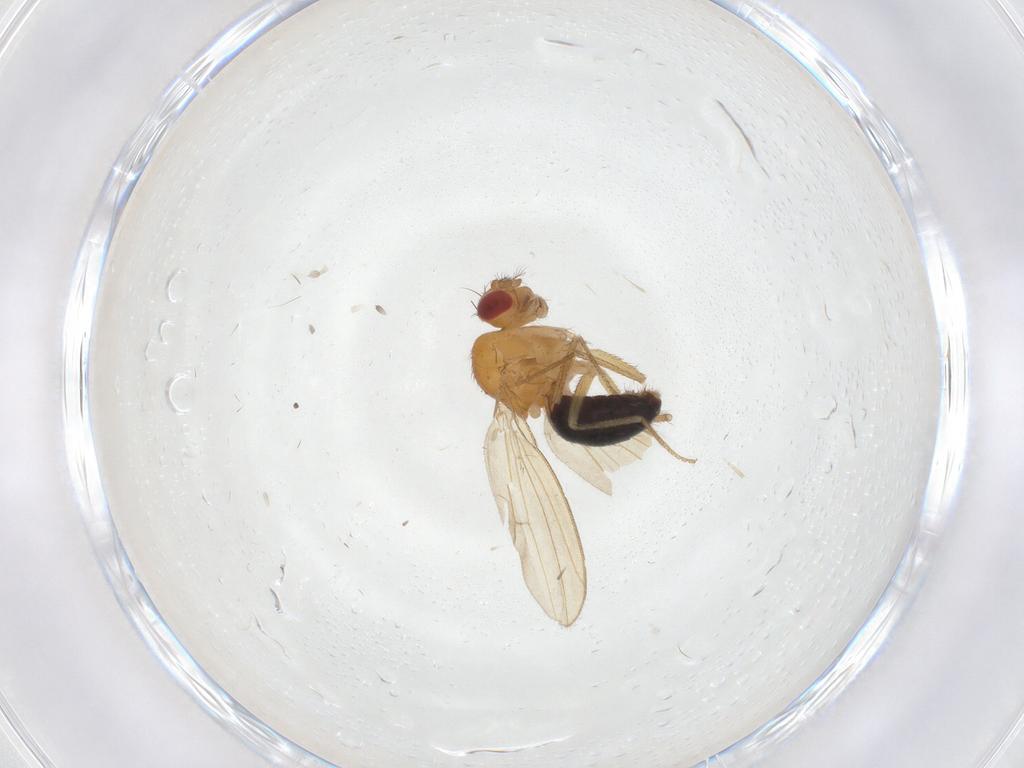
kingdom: Animalia
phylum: Arthropoda
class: Insecta
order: Diptera
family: Drosophilidae
